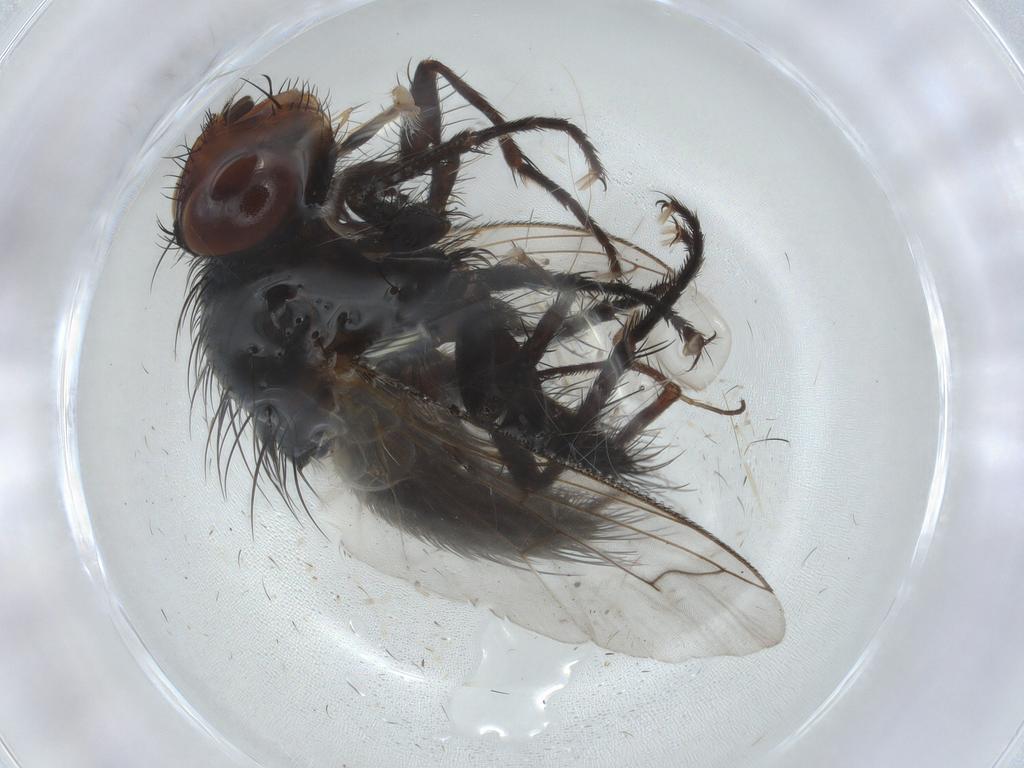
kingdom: Animalia
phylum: Arthropoda
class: Insecta
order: Diptera
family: Tachinidae
